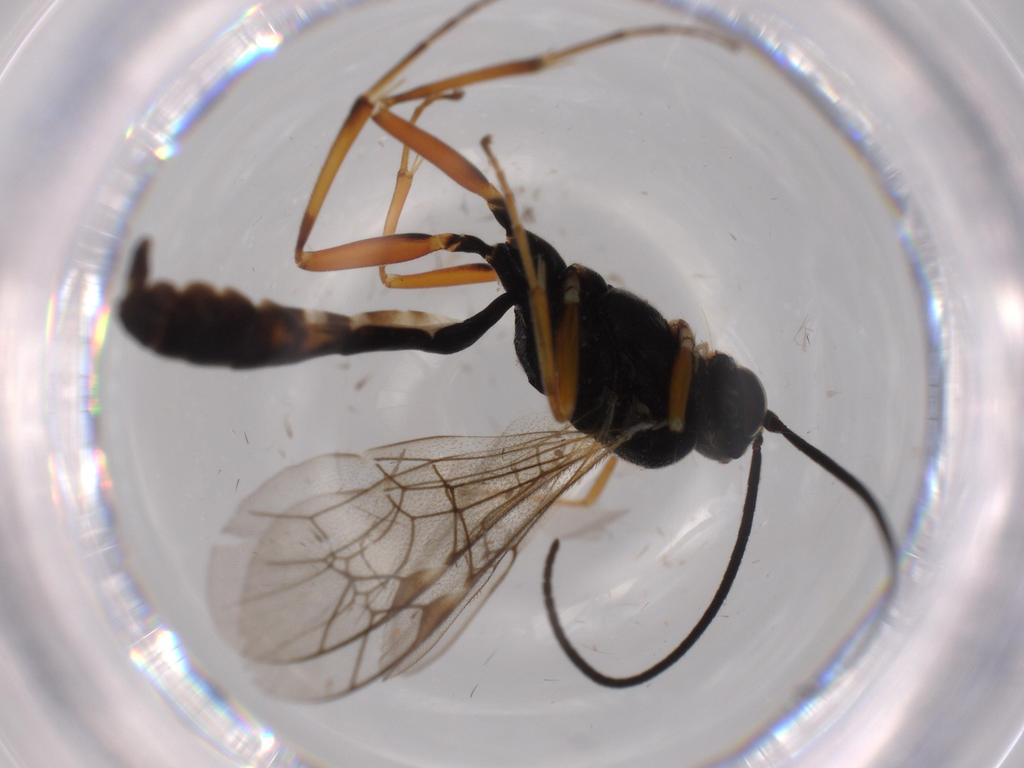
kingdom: Animalia
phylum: Arthropoda
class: Insecta
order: Hymenoptera
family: Ichneumonidae
